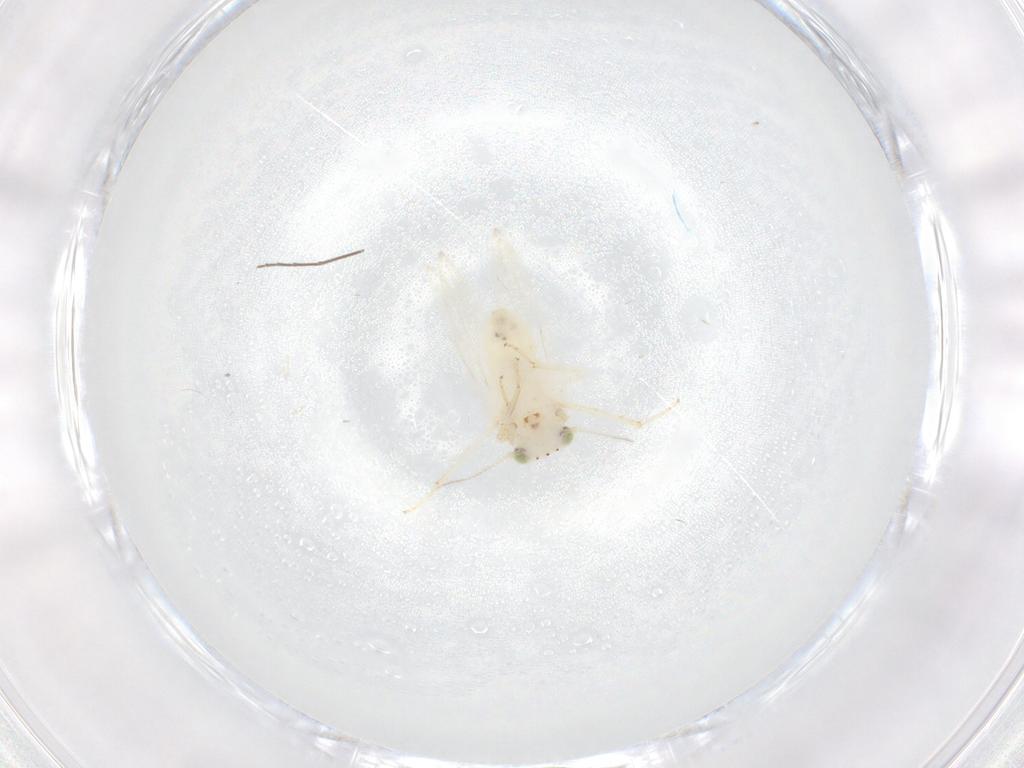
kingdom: Animalia
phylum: Arthropoda
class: Insecta
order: Psocodea
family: Lepidopsocidae
